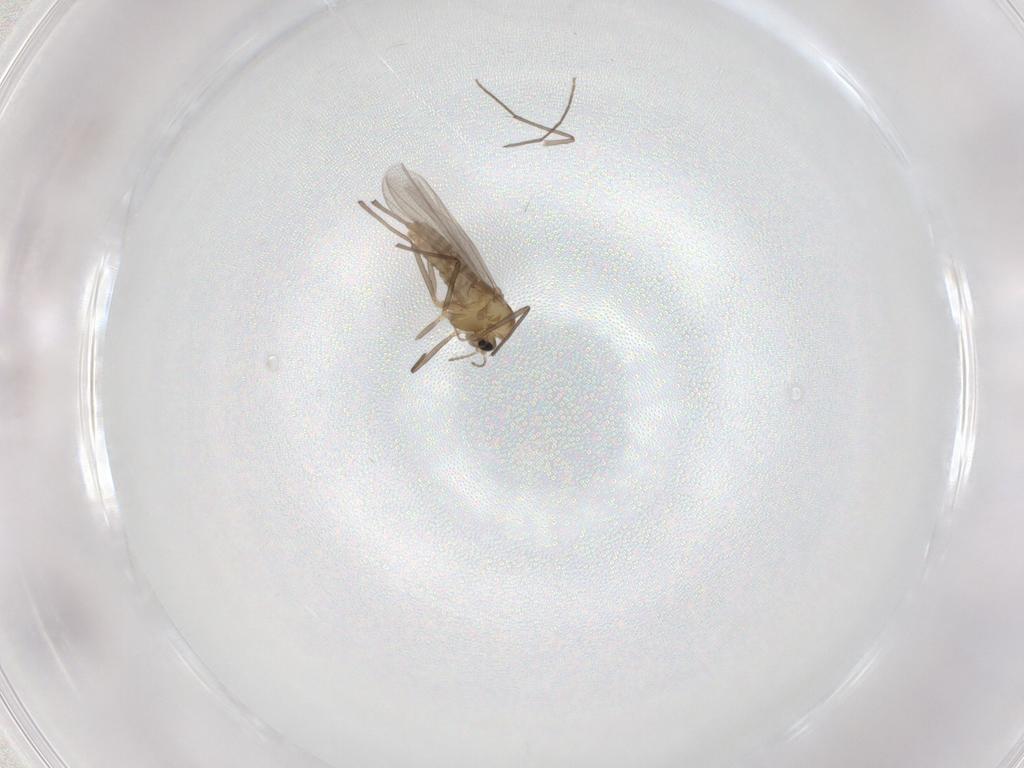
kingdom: Animalia
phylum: Arthropoda
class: Insecta
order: Diptera
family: Chironomidae
